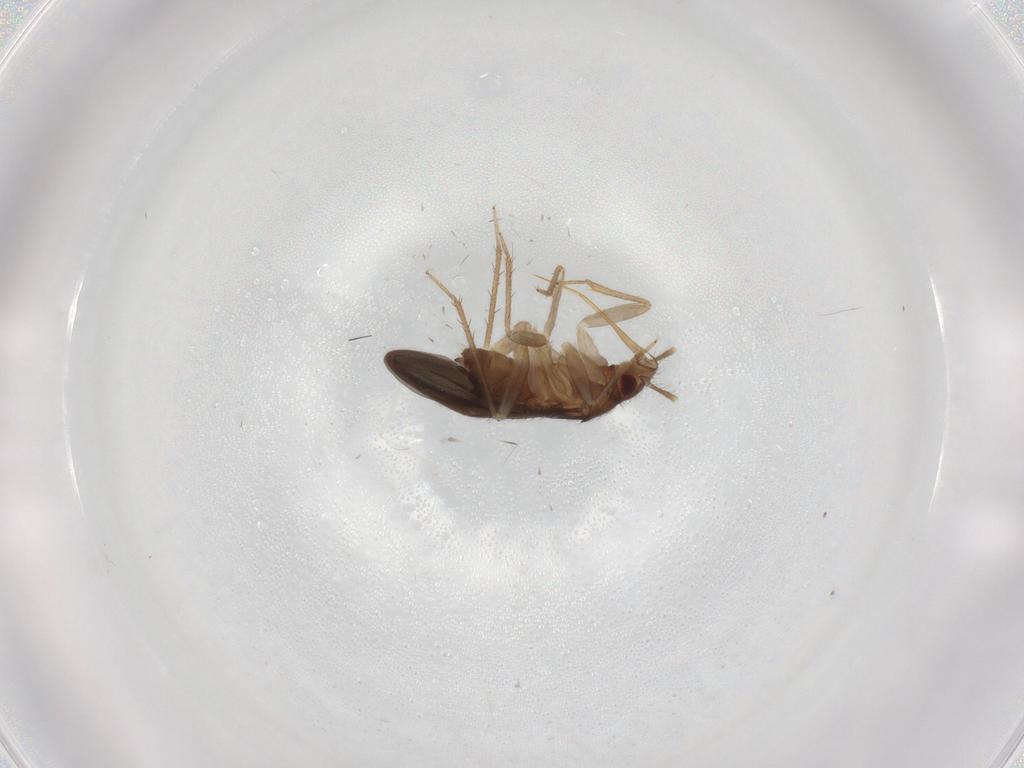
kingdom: Animalia
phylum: Arthropoda
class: Insecta
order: Hemiptera
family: Ceratocombidae
